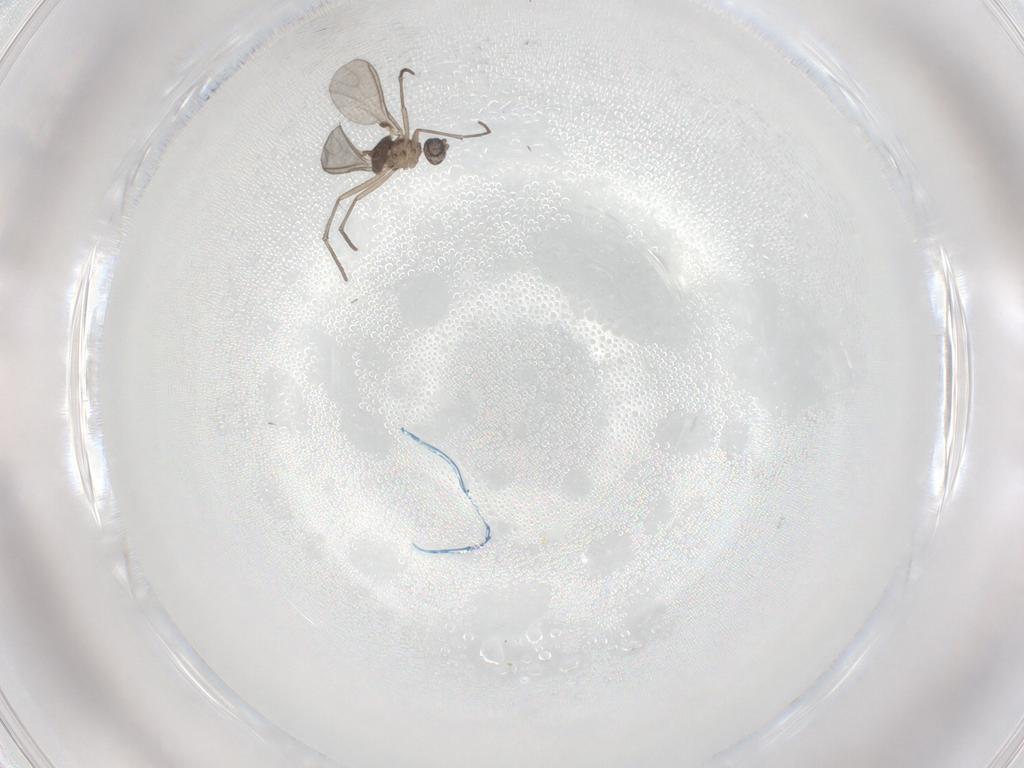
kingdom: Animalia
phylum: Arthropoda
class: Insecta
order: Diptera
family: Sciaridae
